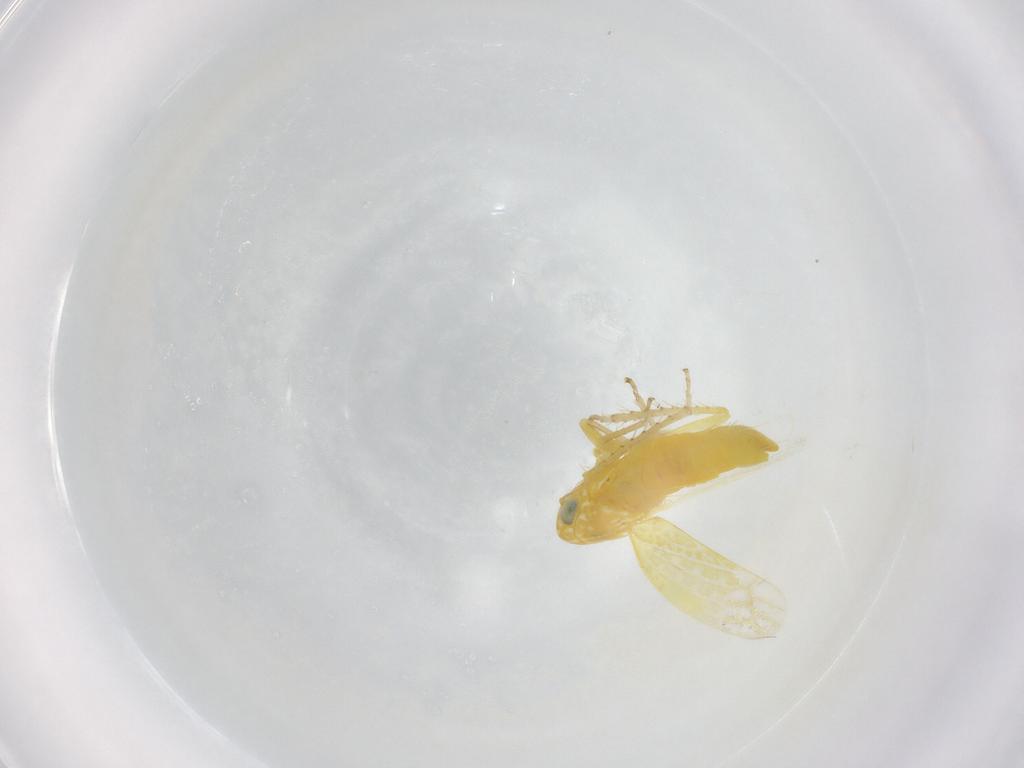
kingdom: Animalia
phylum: Arthropoda
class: Insecta
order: Hemiptera
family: Cicadellidae
